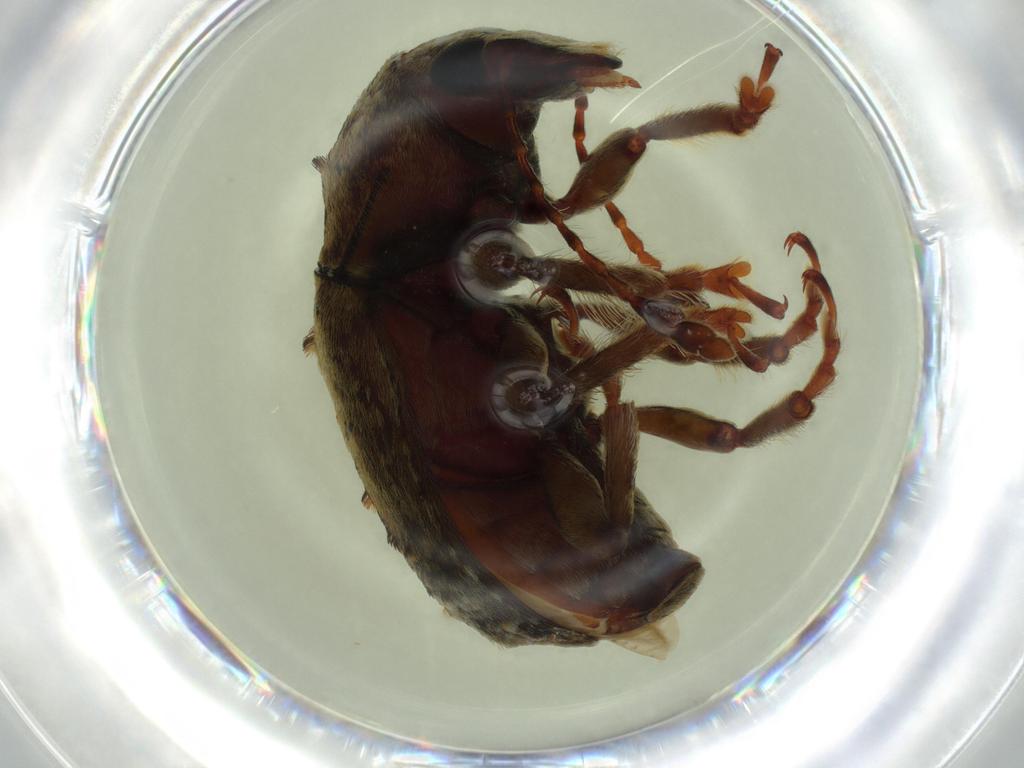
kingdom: Animalia
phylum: Arthropoda
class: Insecta
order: Coleoptera
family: Anthribidae
